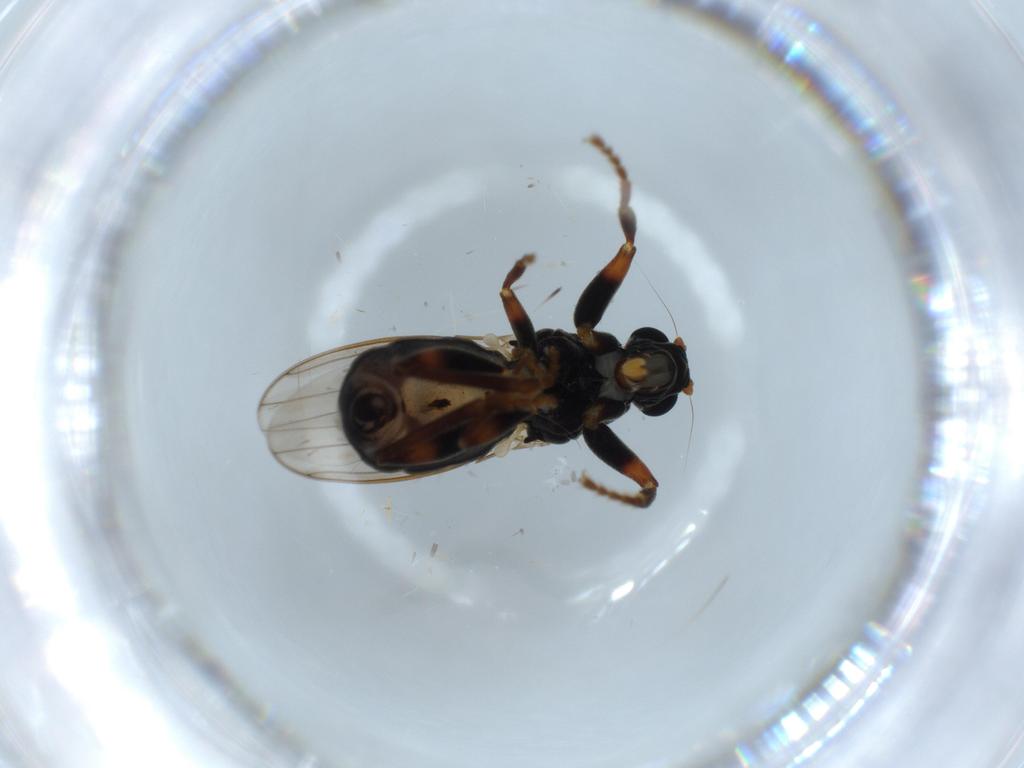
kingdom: Animalia
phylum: Arthropoda
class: Insecta
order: Diptera
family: Sphaeroceridae
